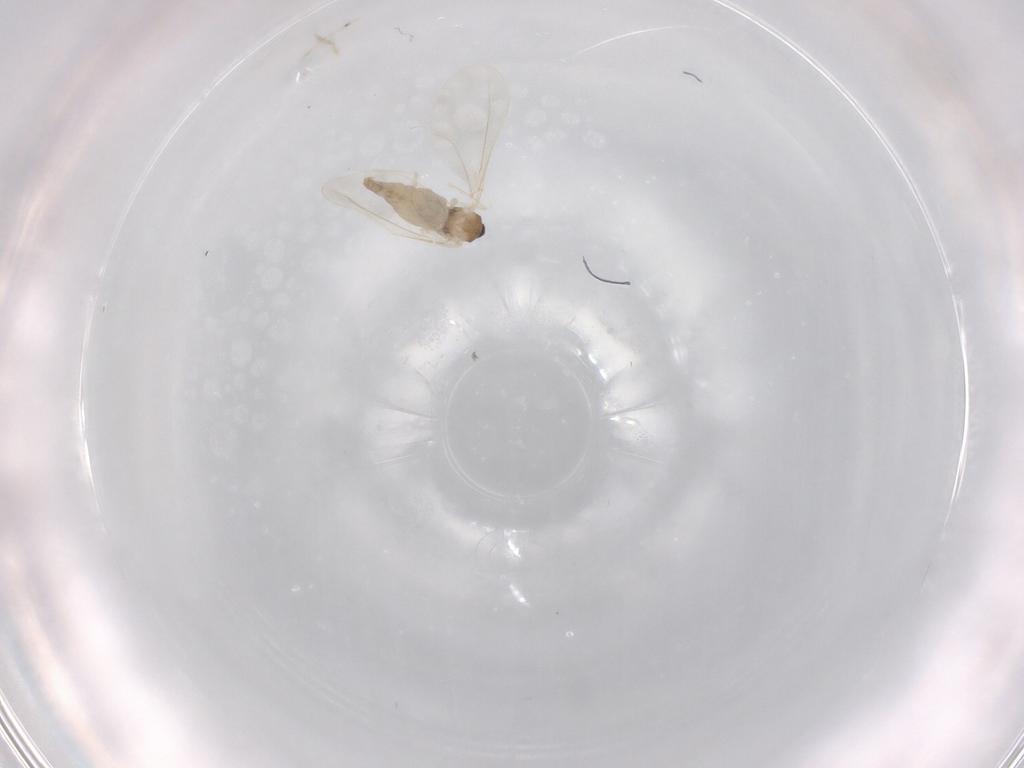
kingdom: Animalia
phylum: Arthropoda
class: Insecta
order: Diptera
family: Cecidomyiidae
